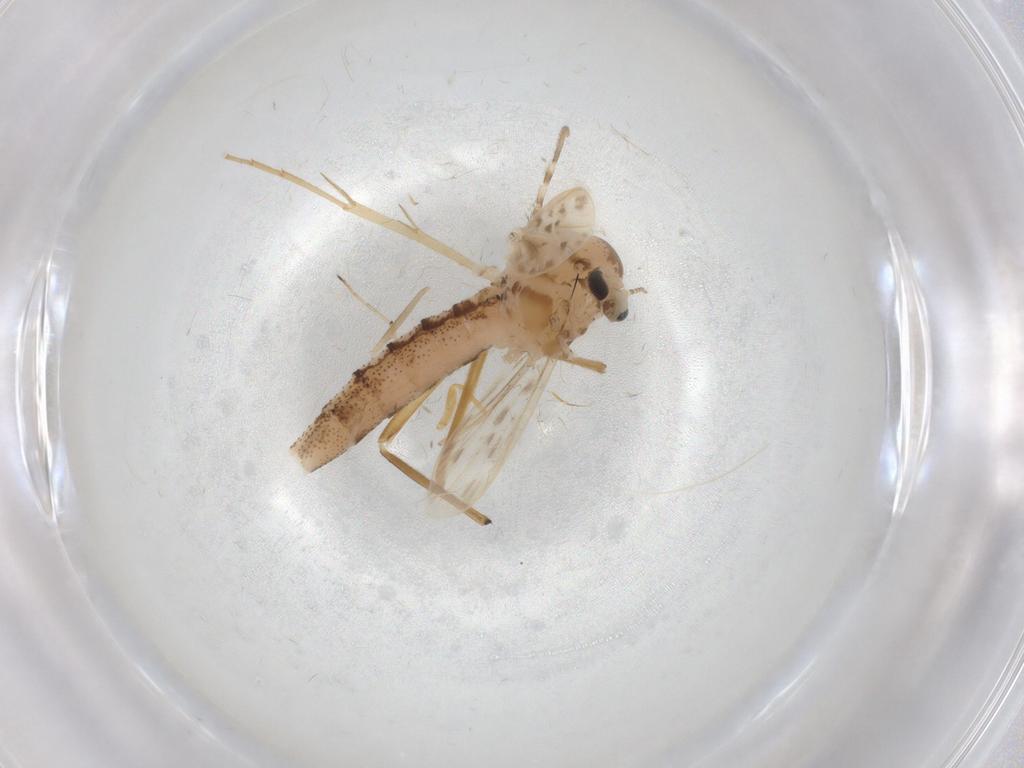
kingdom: Animalia
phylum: Arthropoda
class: Insecta
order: Diptera
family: Chaoboridae
